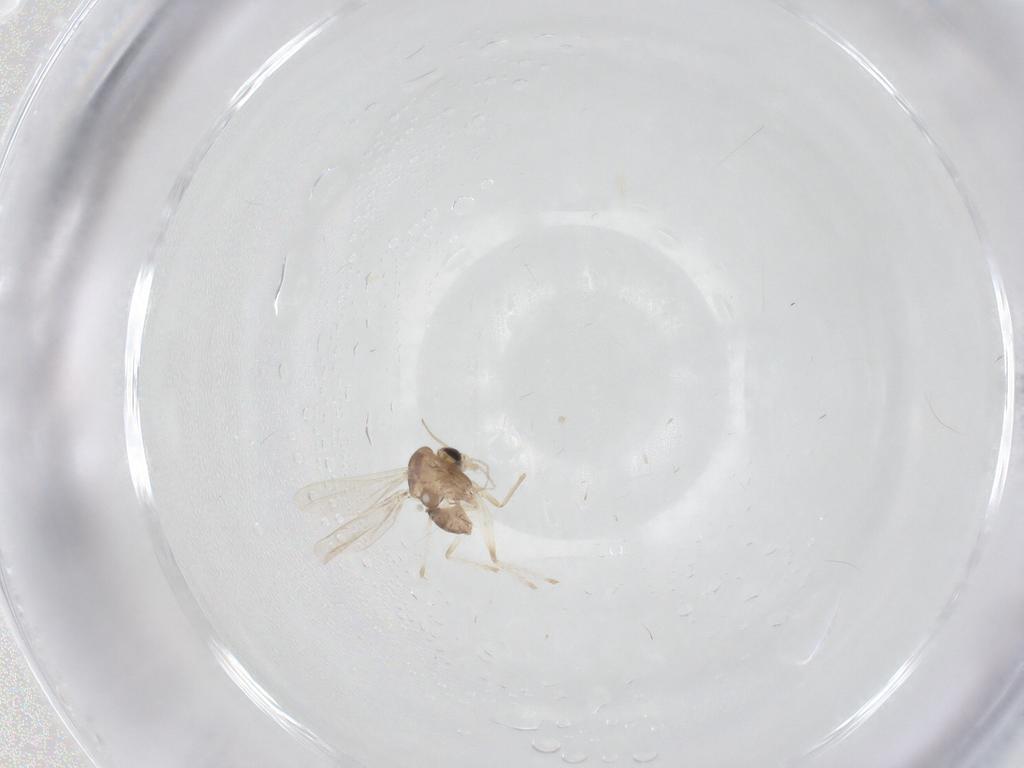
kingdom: Animalia
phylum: Arthropoda
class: Insecta
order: Diptera
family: Chironomidae
